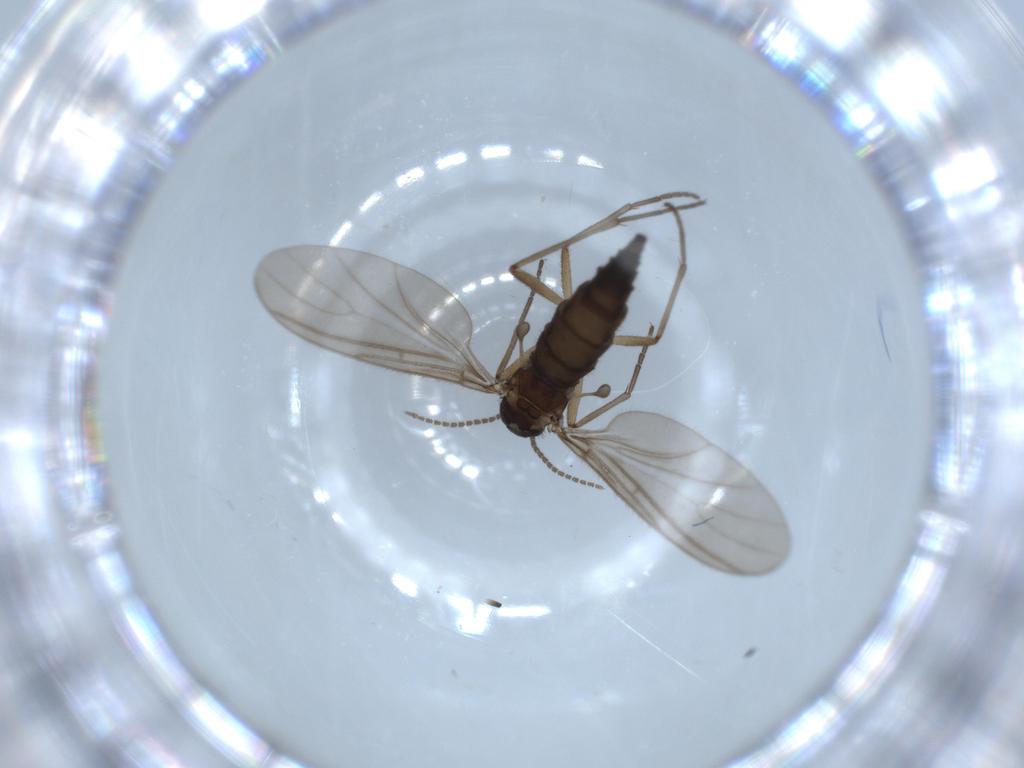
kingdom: Animalia
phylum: Arthropoda
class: Insecta
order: Diptera
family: Sciaridae
